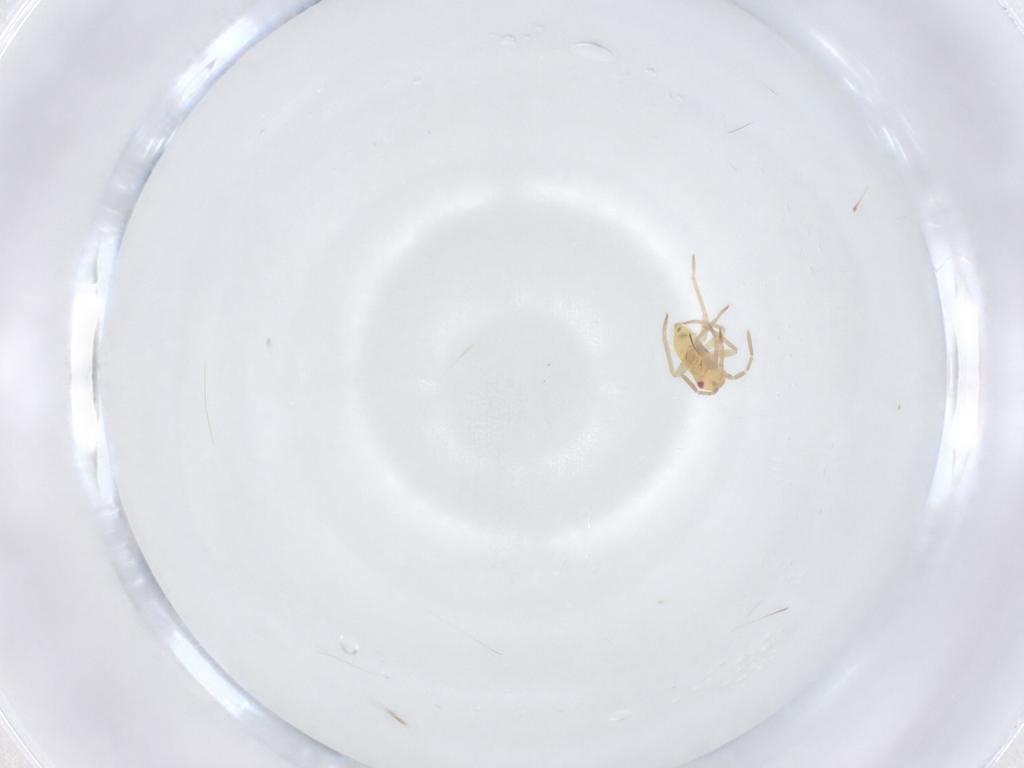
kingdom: Animalia
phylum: Arthropoda
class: Insecta
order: Hemiptera
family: Miridae
